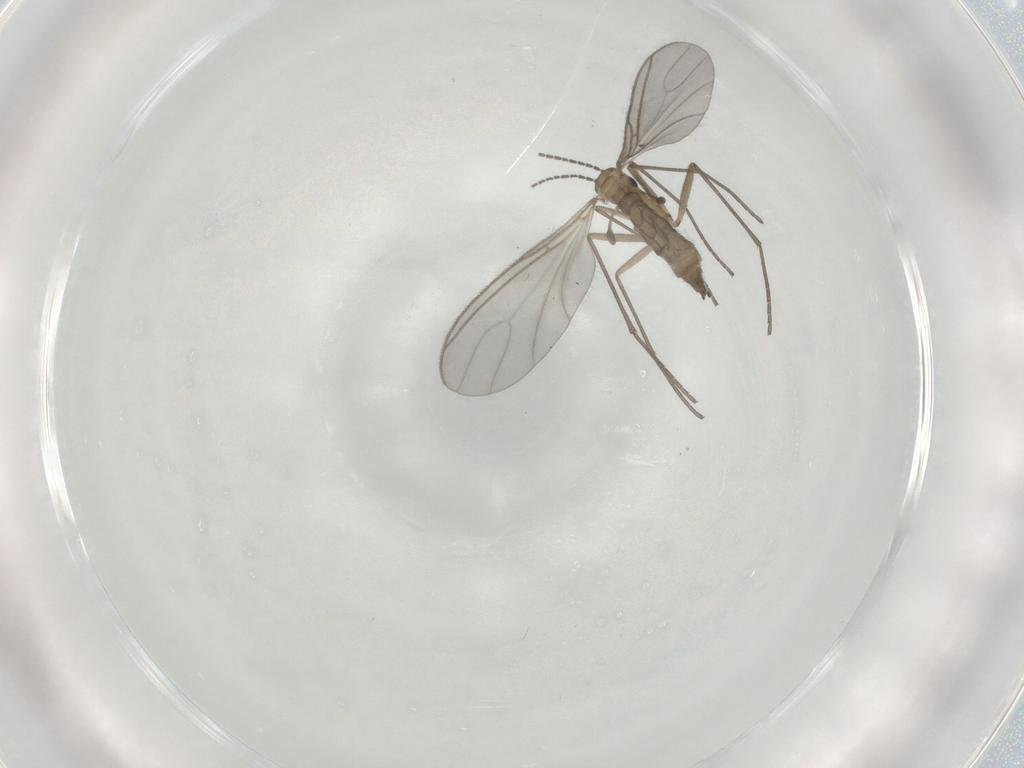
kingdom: Animalia
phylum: Arthropoda
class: Insecta
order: Diptera
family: Sciaridae
